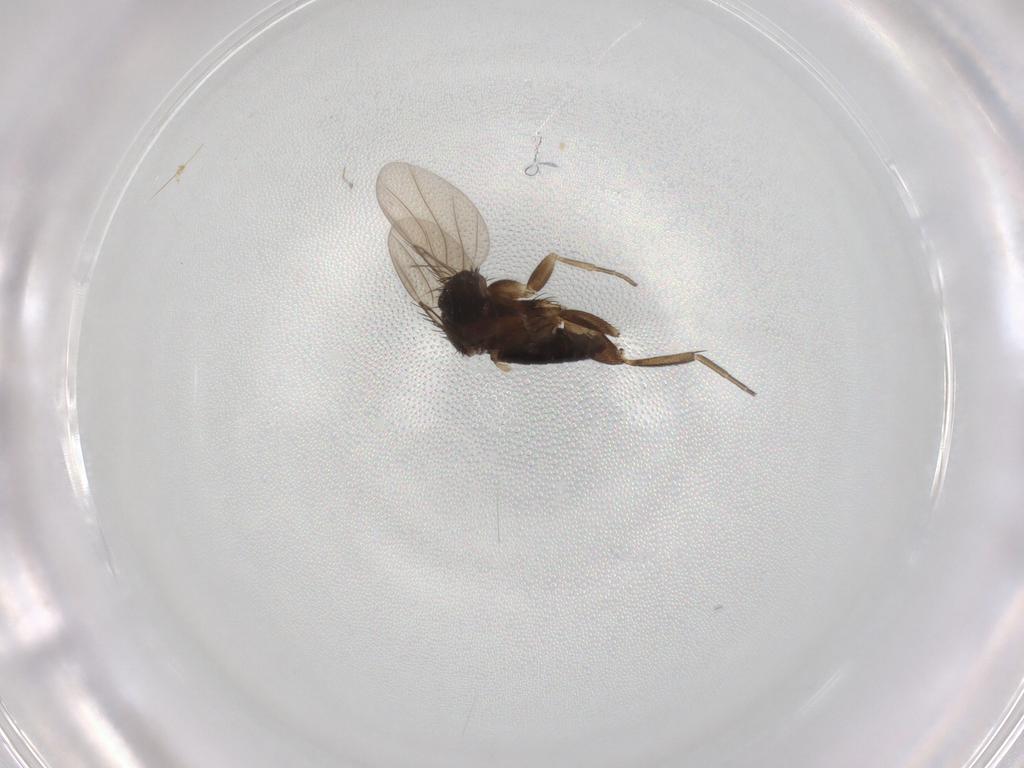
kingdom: Animalia
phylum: Arthropoda
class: Insecta
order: Diptera
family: Phoridae
